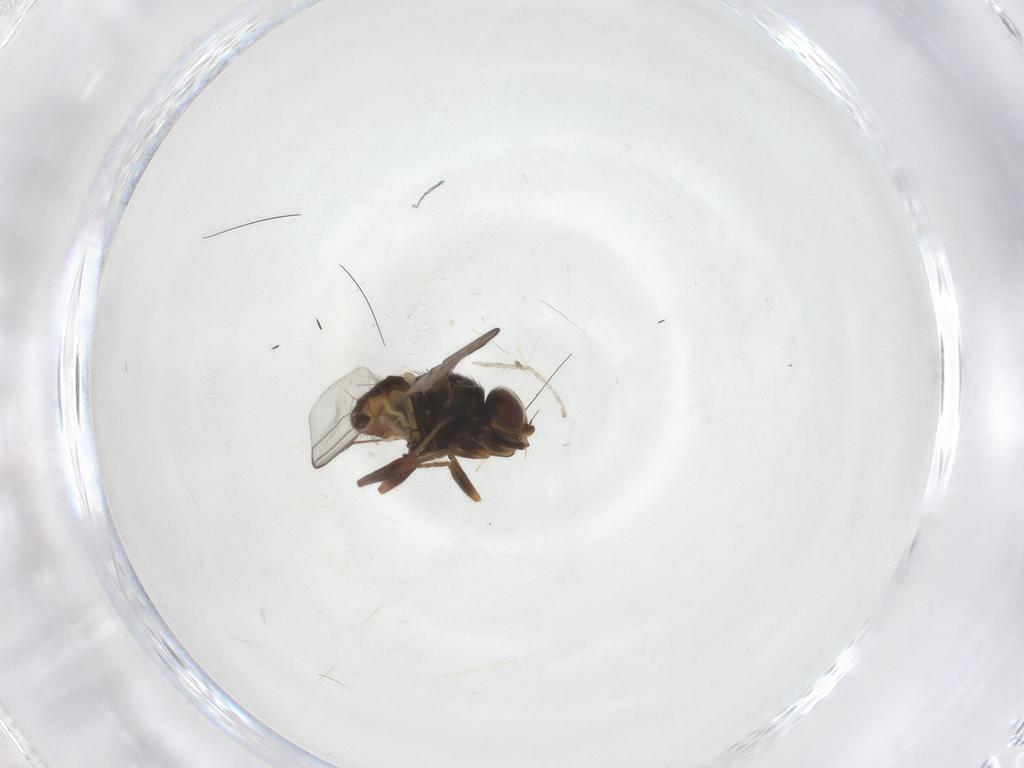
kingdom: Animalia
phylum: Arthropoda
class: Insecta
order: Diptera
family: Chloropidae
